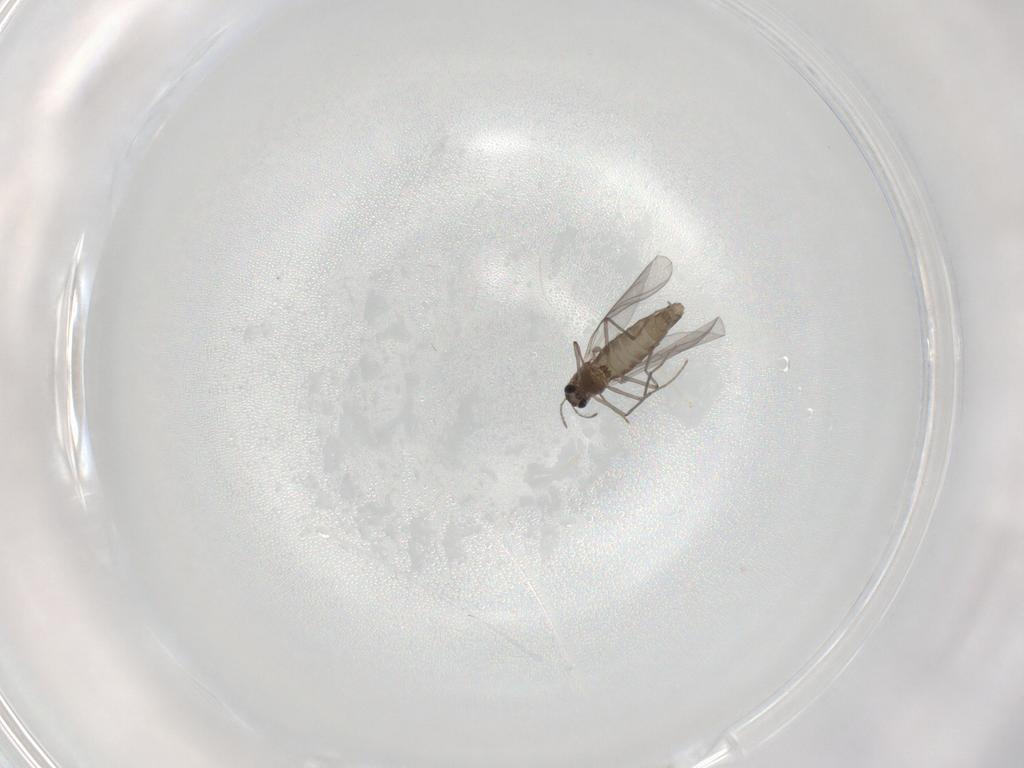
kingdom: Animalia
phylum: Arthropoda
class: Insecta
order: Diptera
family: Chironomidae
